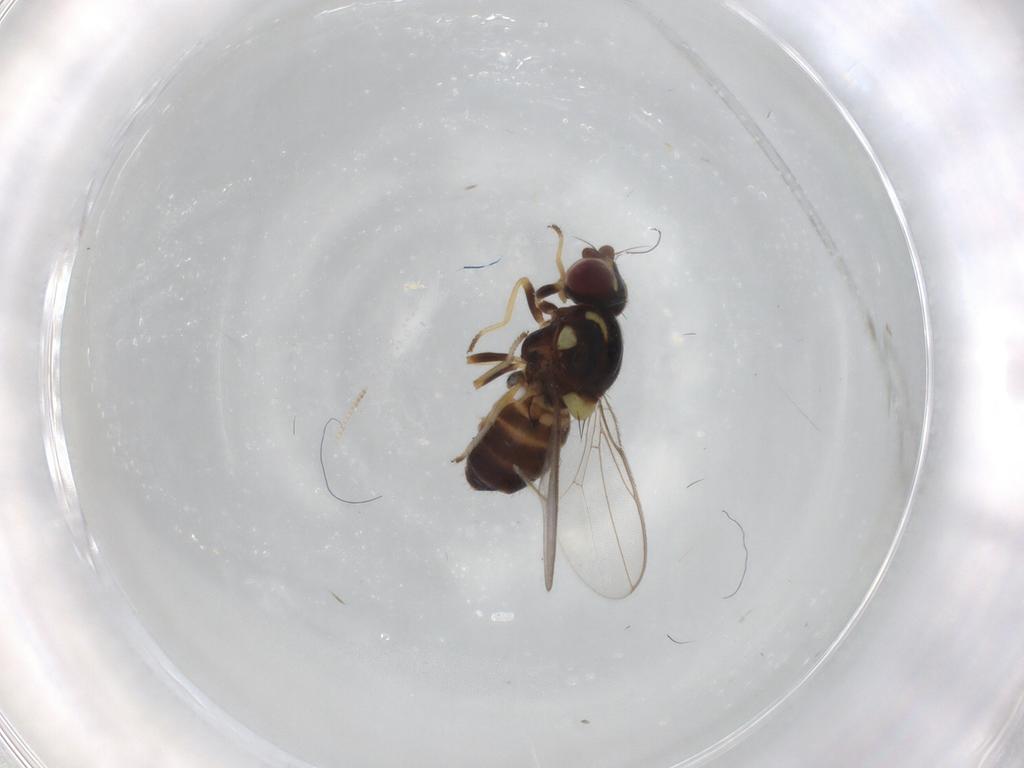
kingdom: Animalia
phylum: Arthropoda
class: Insecta
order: Diptera
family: Chloropidae
